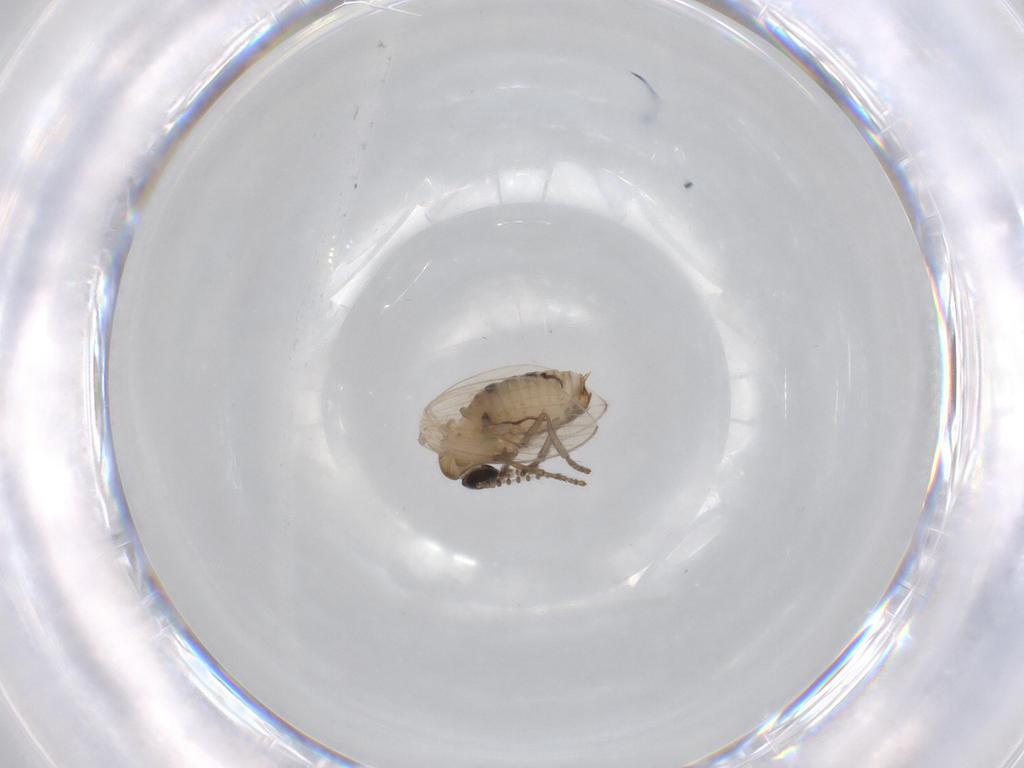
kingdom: Animalia
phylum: Arthropoda
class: Insecta
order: Diptera
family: Psychodidae
